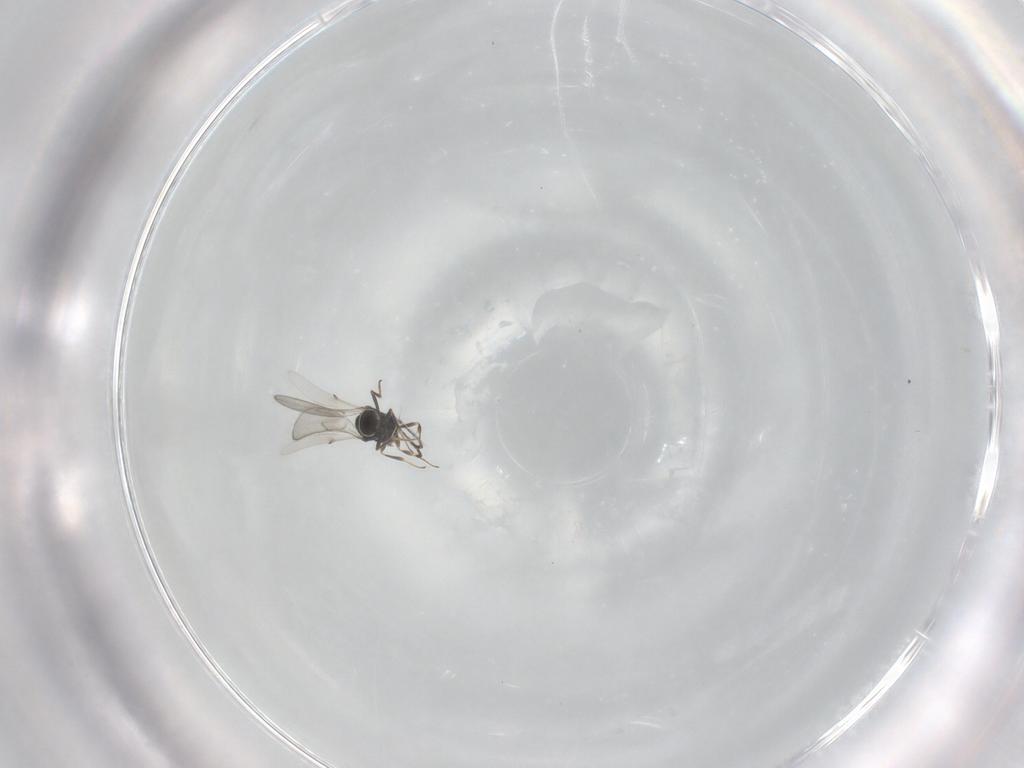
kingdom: Animalia
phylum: Arthropoda
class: Insecta
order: Hymenoptera
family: Scelionidae
